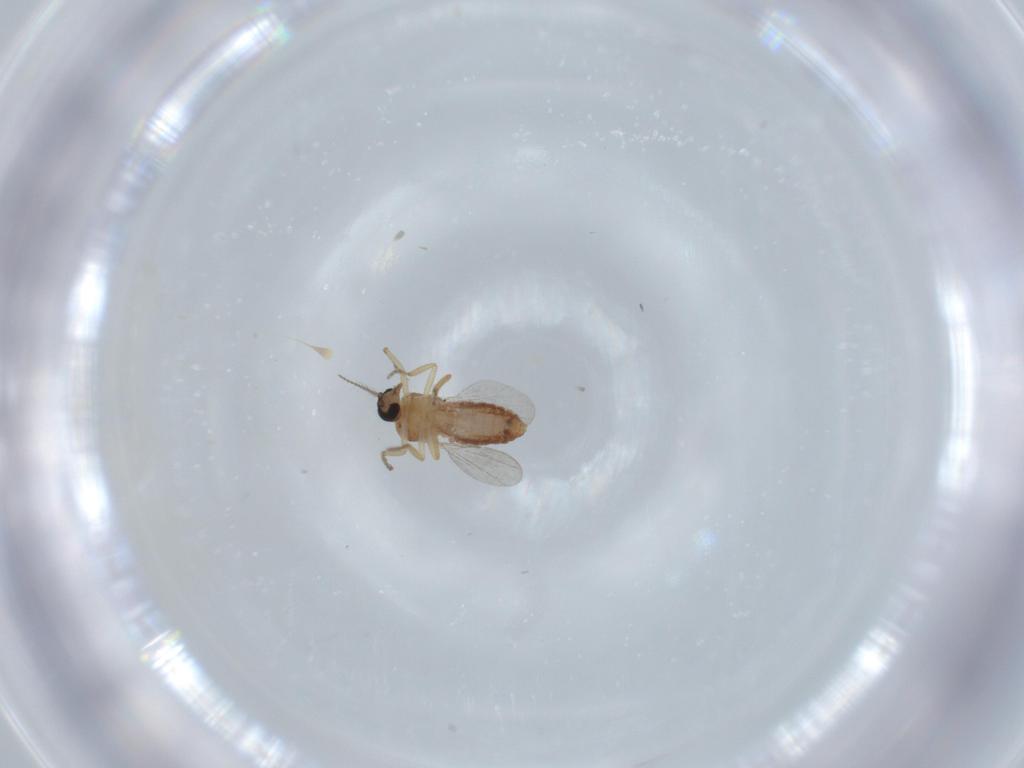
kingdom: Animalia
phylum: Arthropoda
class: Insecta
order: Diptera
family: Ceratopogonidae
